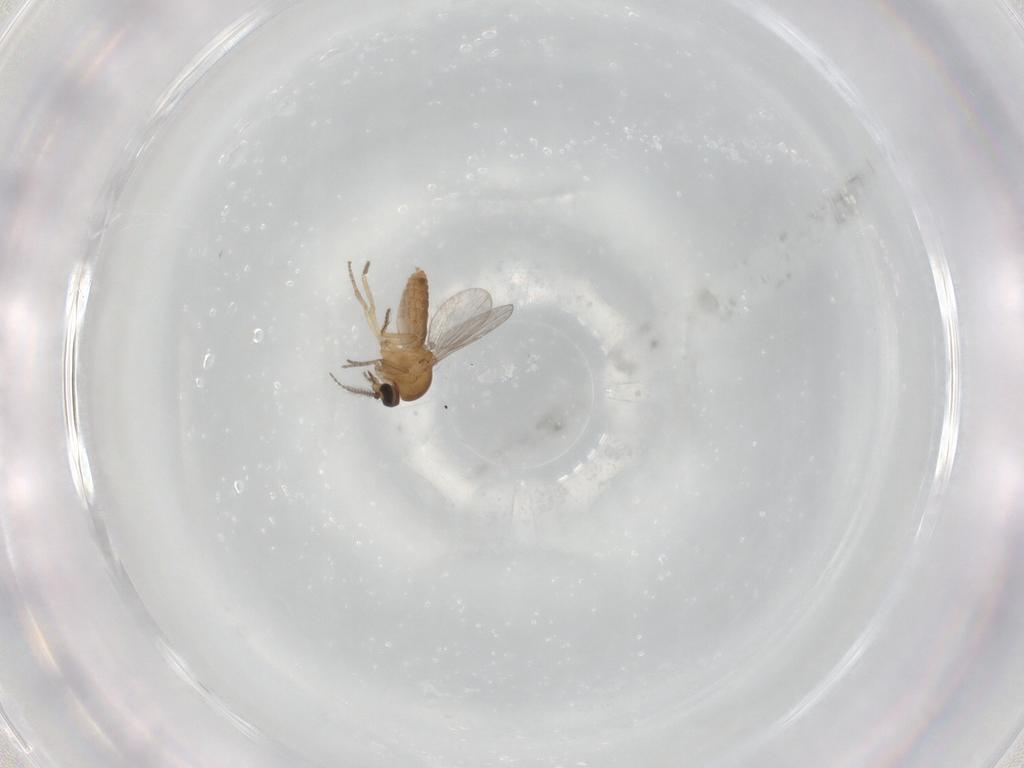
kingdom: Animalia
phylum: Arthropoda
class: Insecta
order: Diptera
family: Ceratopogonidae
